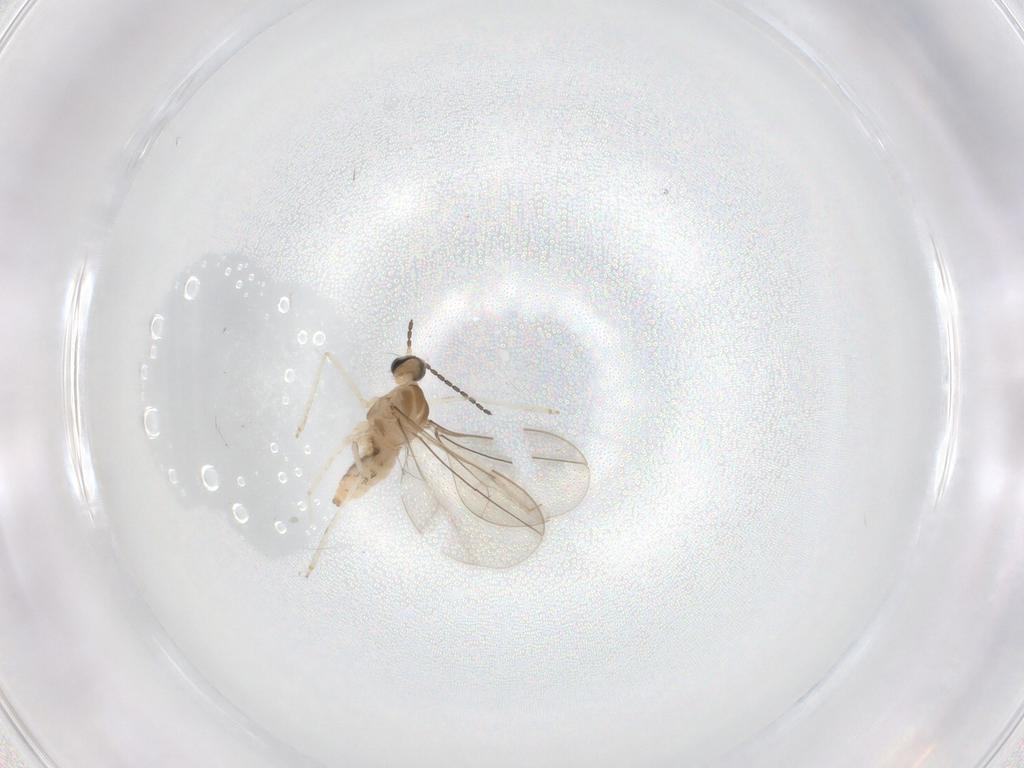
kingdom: Animalia
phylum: Arthropoda
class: Insecta
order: Diptera
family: Cecidomyiidae
